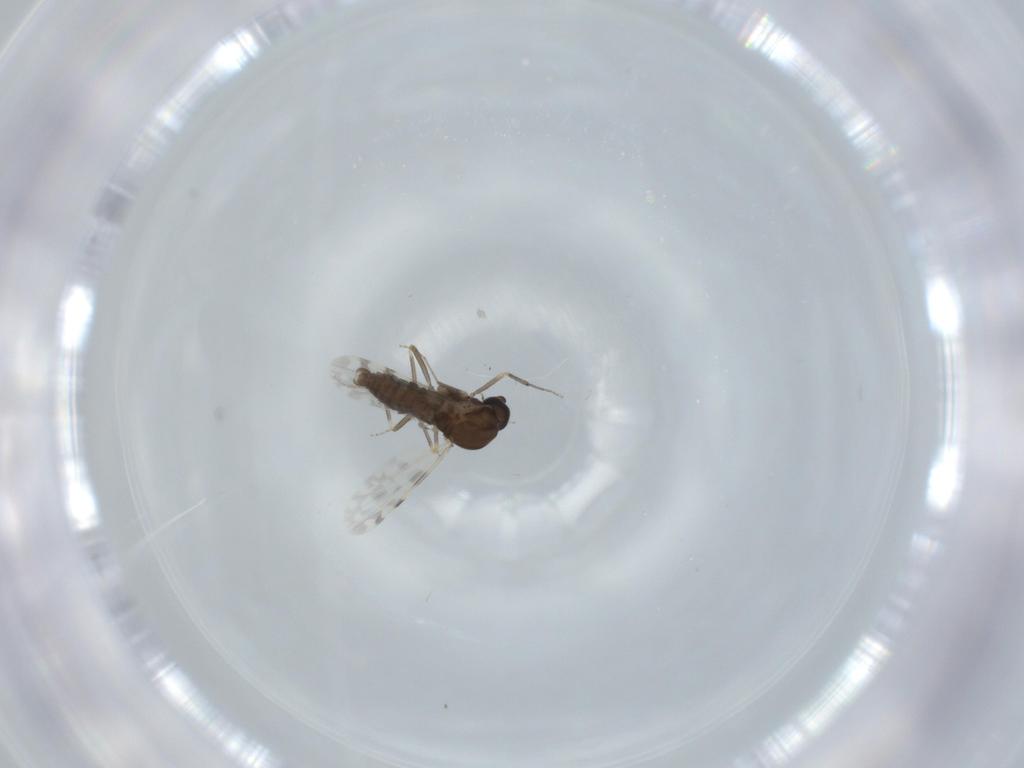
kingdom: Animalia
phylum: Arthropoda
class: Insecta
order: Diptera
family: Ceratopogonidae
